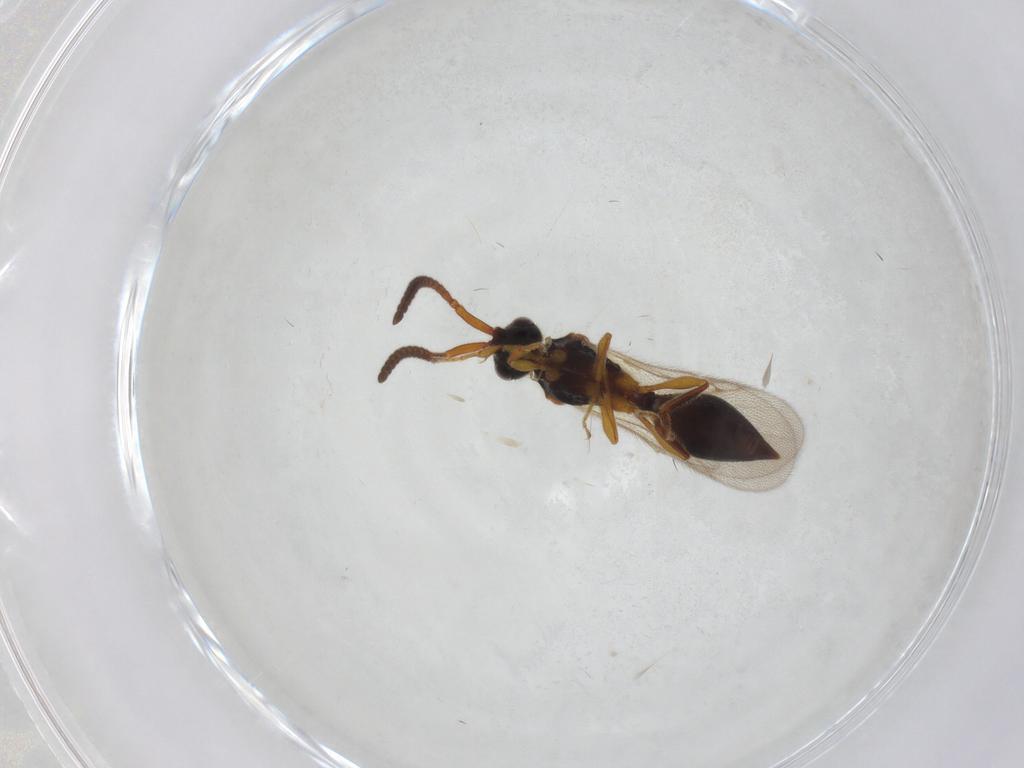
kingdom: Animalia
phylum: Arthropoda
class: Insecta
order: Hymenoptera
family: Diapriidae
